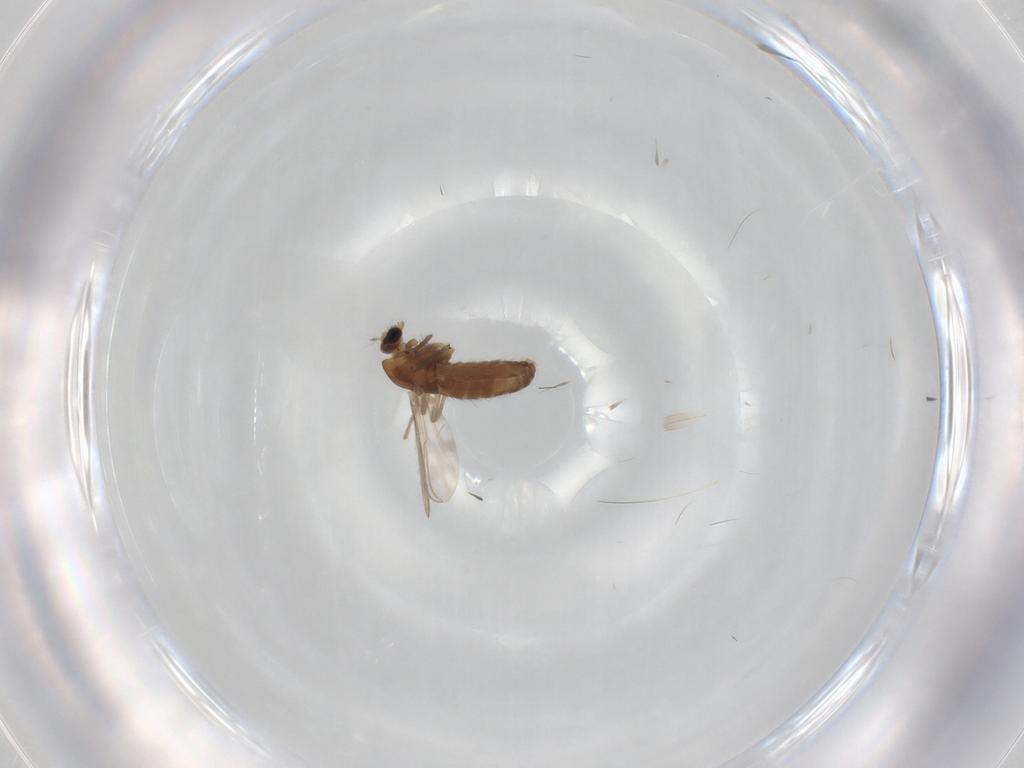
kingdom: Animalia
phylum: Arthropoda
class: Insecta
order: Diptera
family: Chironomidae
